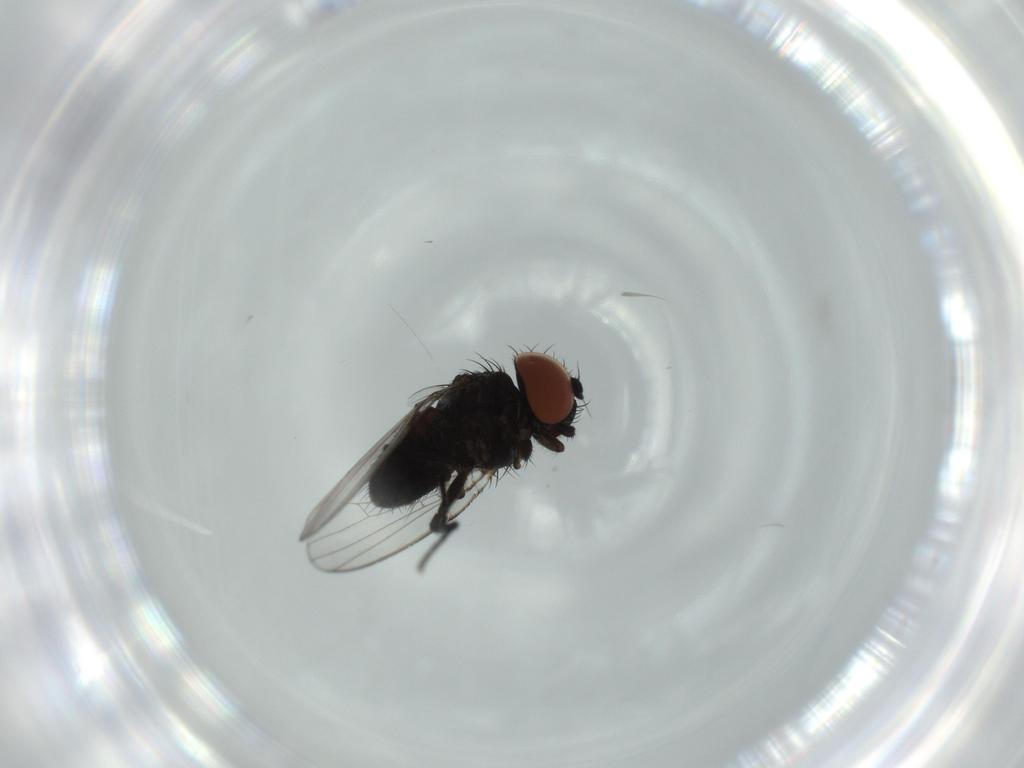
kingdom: Animalia
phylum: Arthropoda
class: Insecta
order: Diptera
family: Milichiidae
